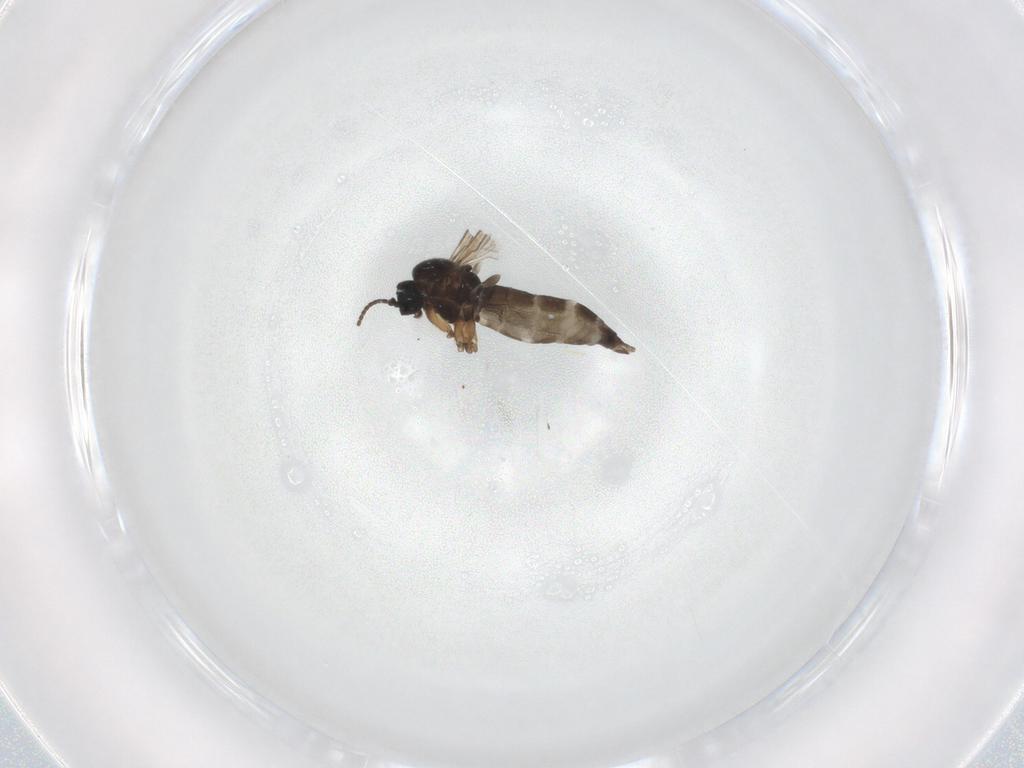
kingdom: Animalia
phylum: Arthropoda
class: Insecta
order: Diptera
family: Sciaridae
